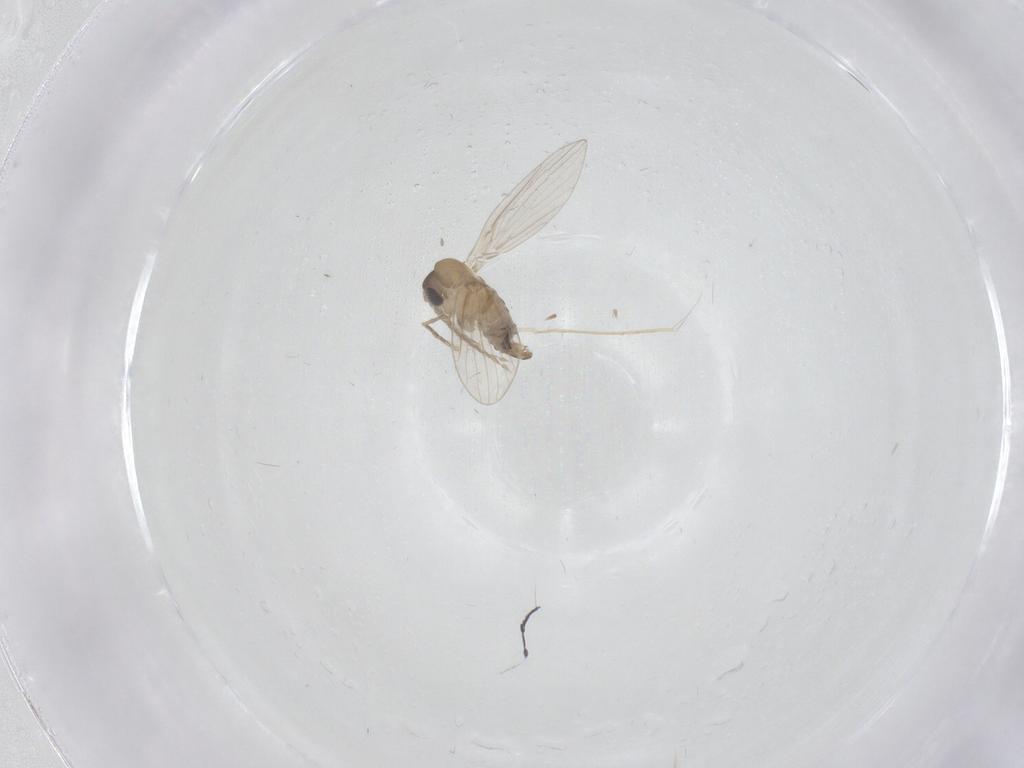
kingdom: Animalia
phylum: Arthropoda
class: Insecta
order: Diptera
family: Psychodidae
